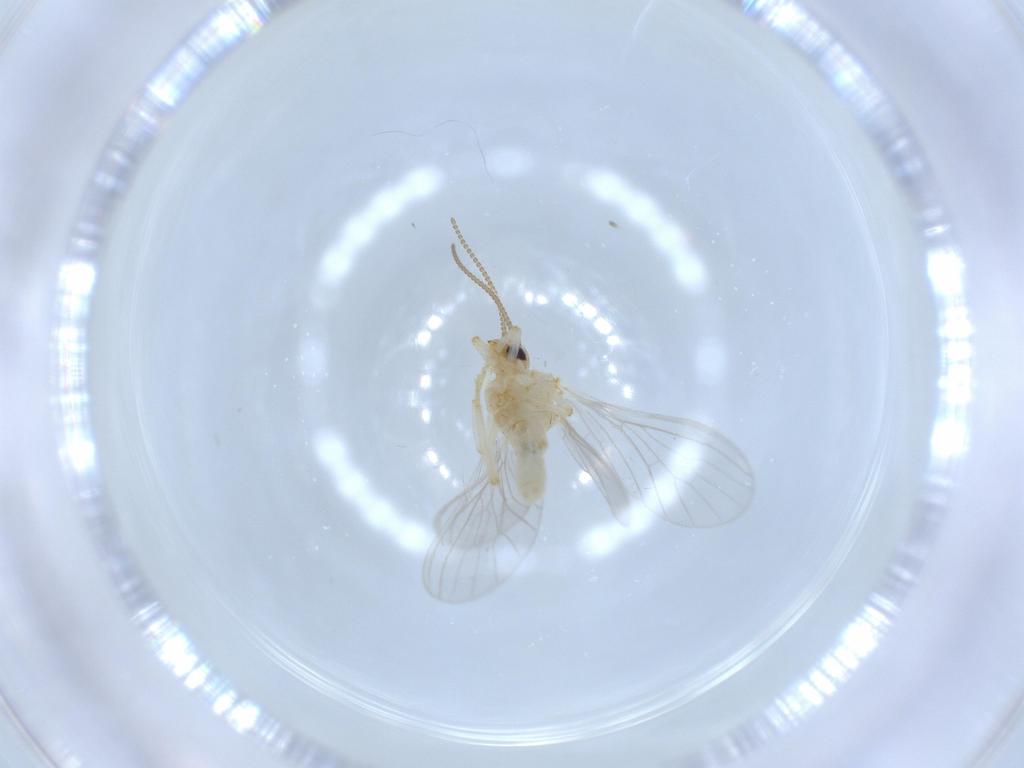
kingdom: Animalia
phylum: Arthropoda
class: Insecta
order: Neuroptera
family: Coniopterygidae
